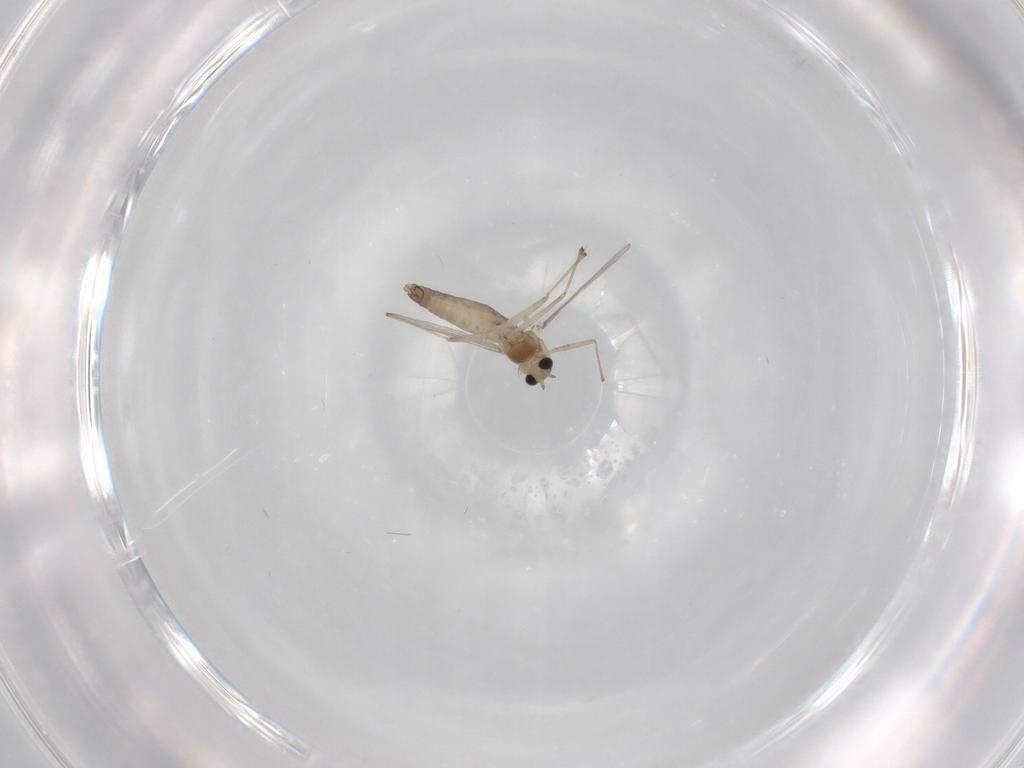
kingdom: Animalia
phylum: Arthropoda
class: Insecta
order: Diptera
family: Chironomidae
